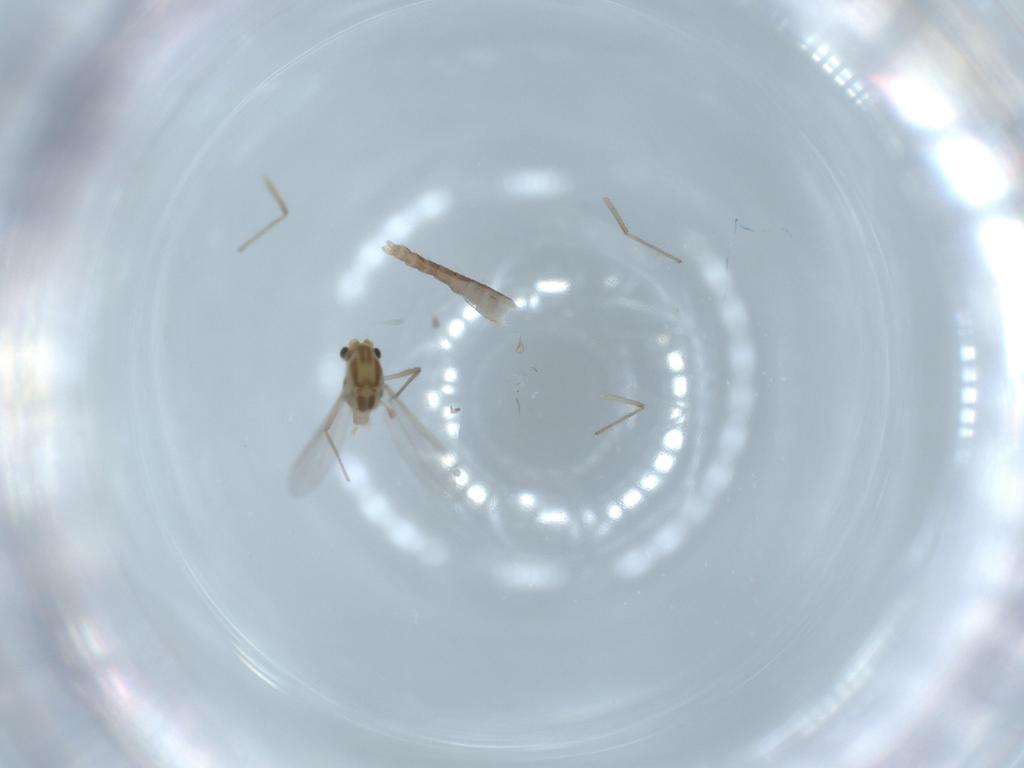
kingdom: Animalia
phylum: Arthropoda
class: Insecta
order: Diptera
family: Chironomidae
